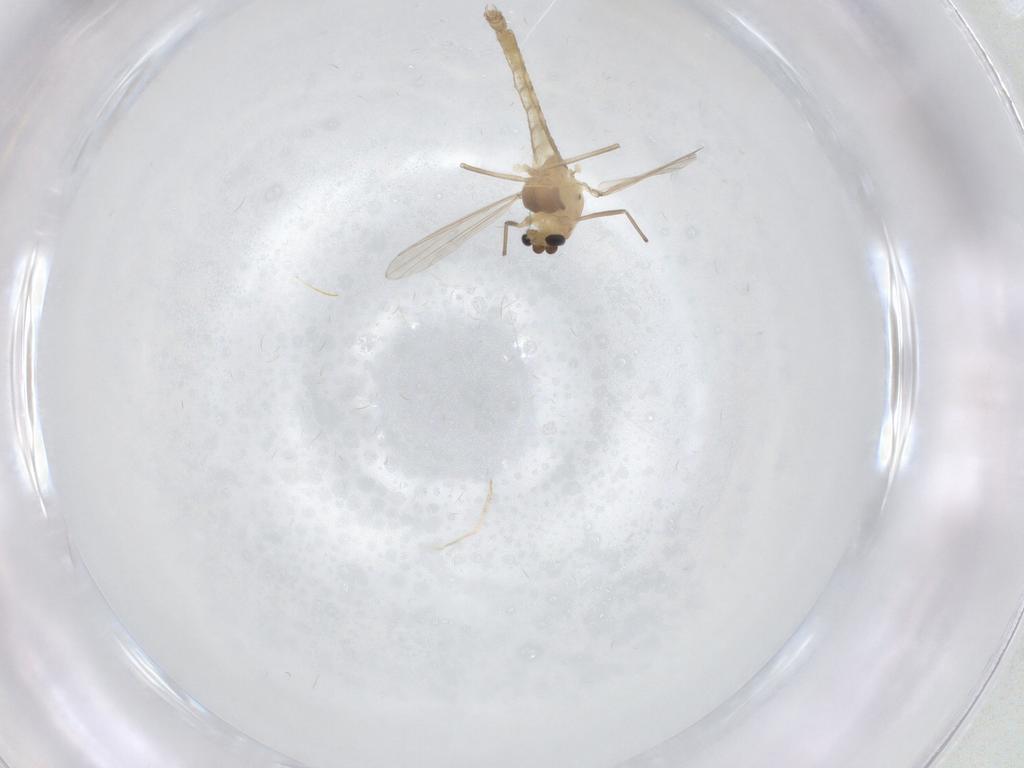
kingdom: Animalia
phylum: Arthropoda
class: Insecta
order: Diptera
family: Chironomidae
